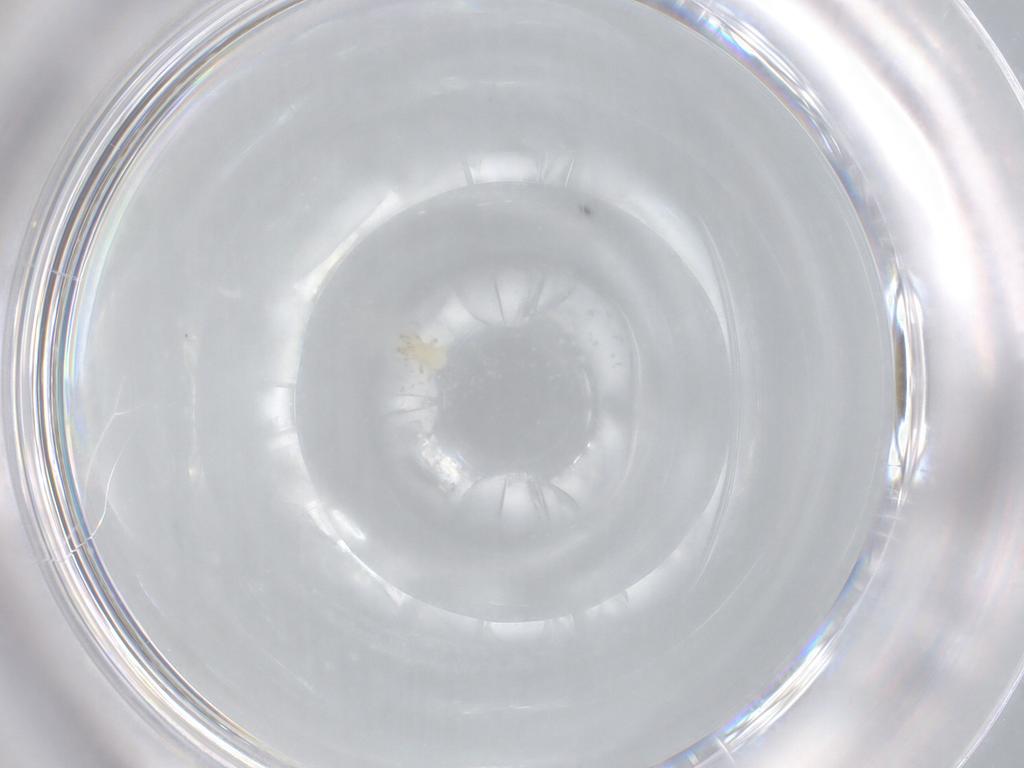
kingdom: Animalia
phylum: Arthropoda
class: Arachnida
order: Mesostigmata
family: Phytoseiidae
